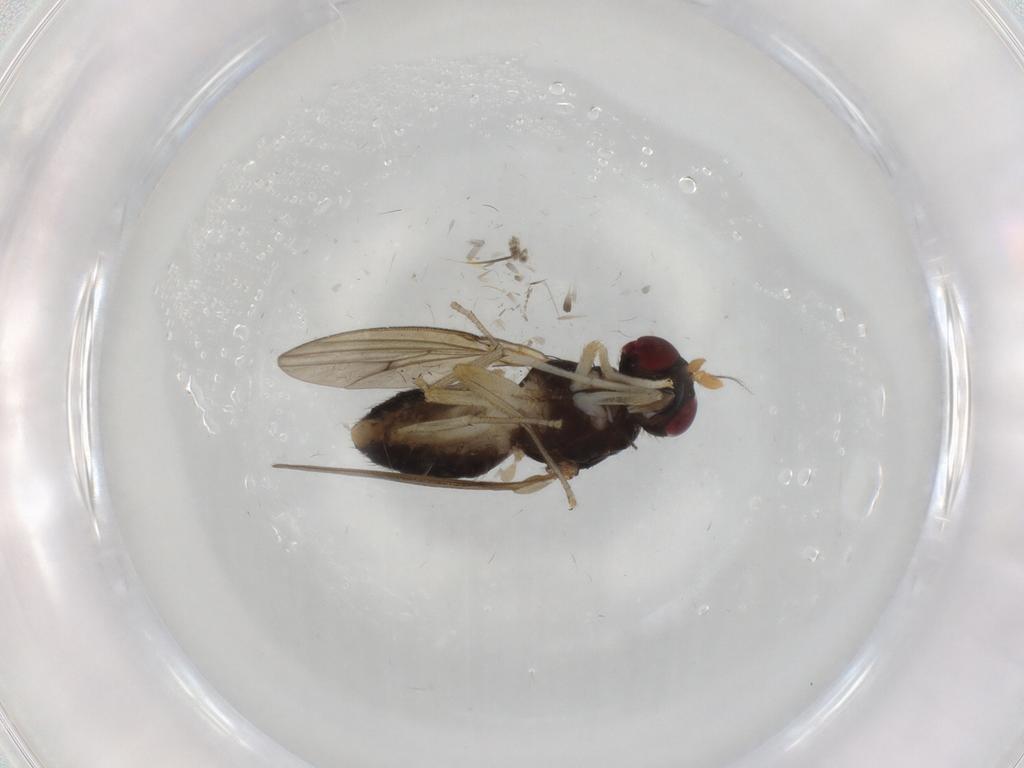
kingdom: Animalia
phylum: Arthropoda
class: Insecta
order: Diptera
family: Syrphidae
